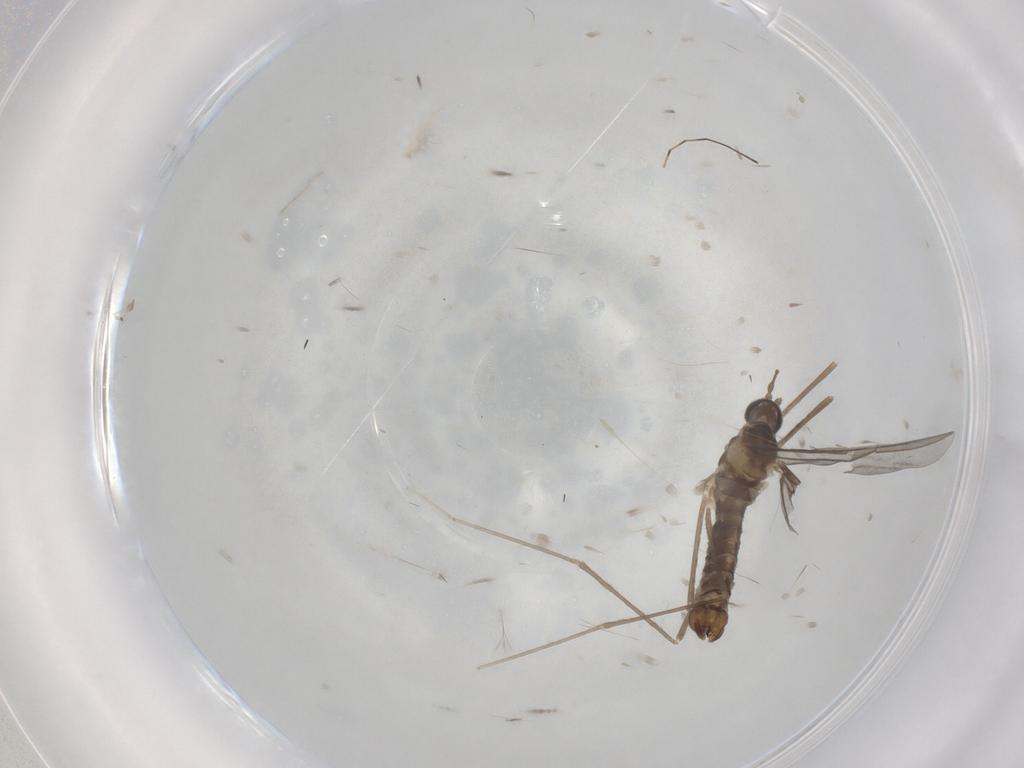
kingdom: Animalia
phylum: Arthropoda
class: Insecta
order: Diptera
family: Cecidomyiidae
